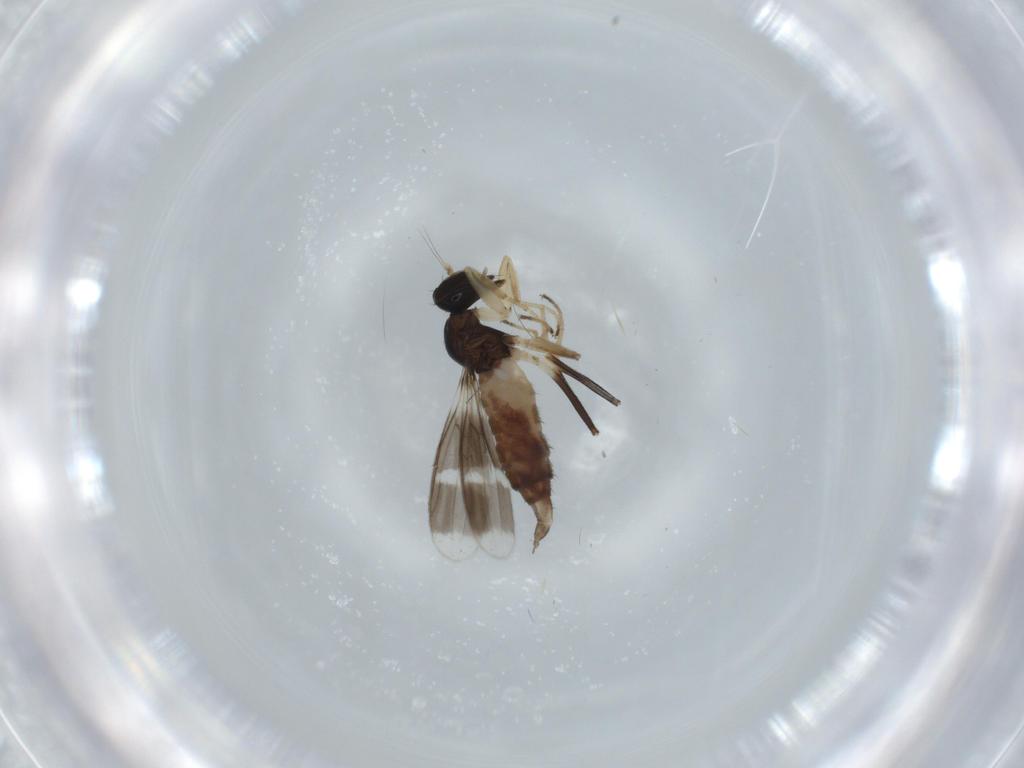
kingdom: Animalia
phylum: Arthropoda
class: Insecta
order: Diptera
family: Hybotidae
